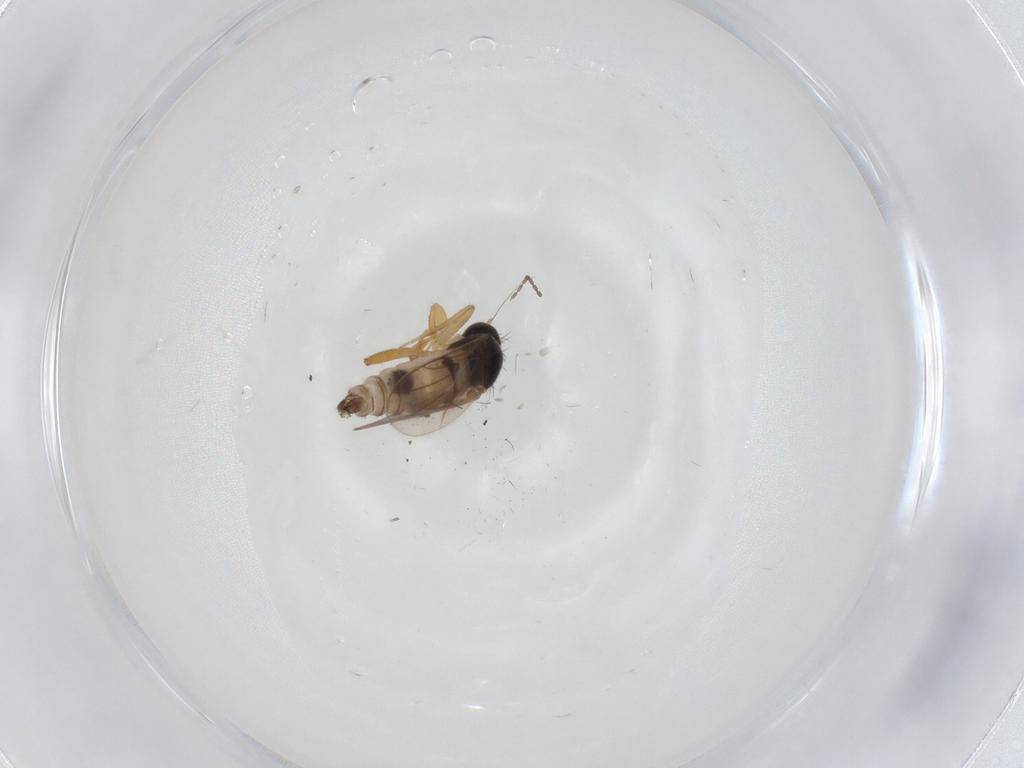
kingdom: Animalia
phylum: Arthropoda
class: Insecta
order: Diptera
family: Hybotidae
